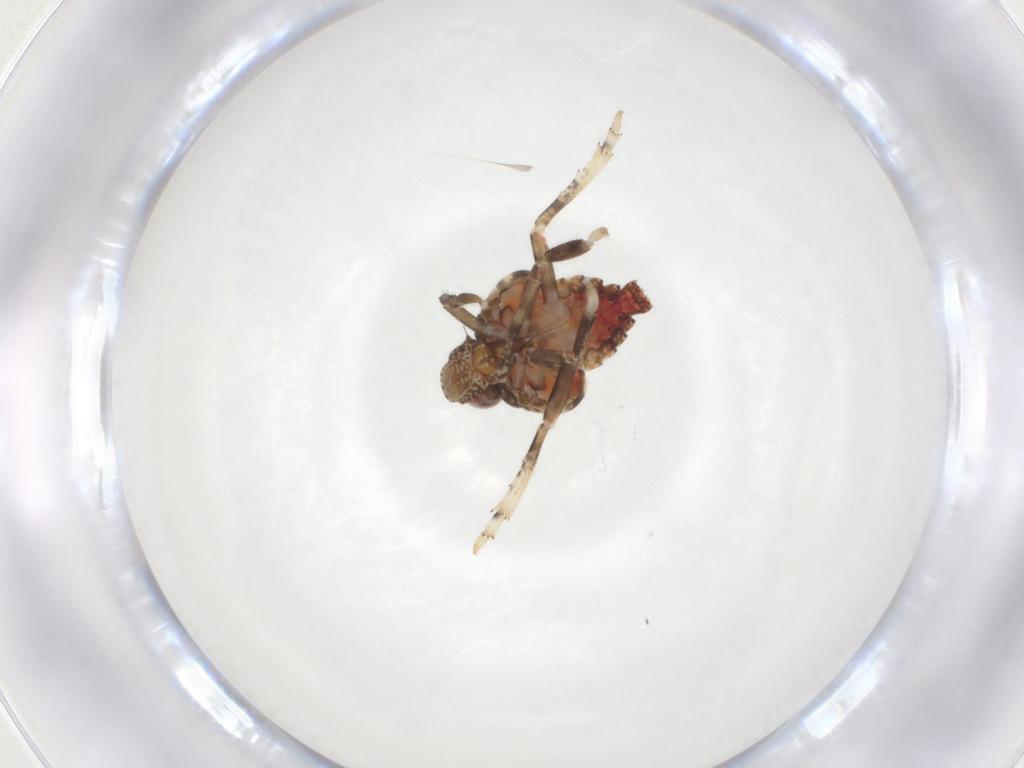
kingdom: Animalia
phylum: Arthropoda
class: Insecta
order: Hemiptera
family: Tropiduchidae
